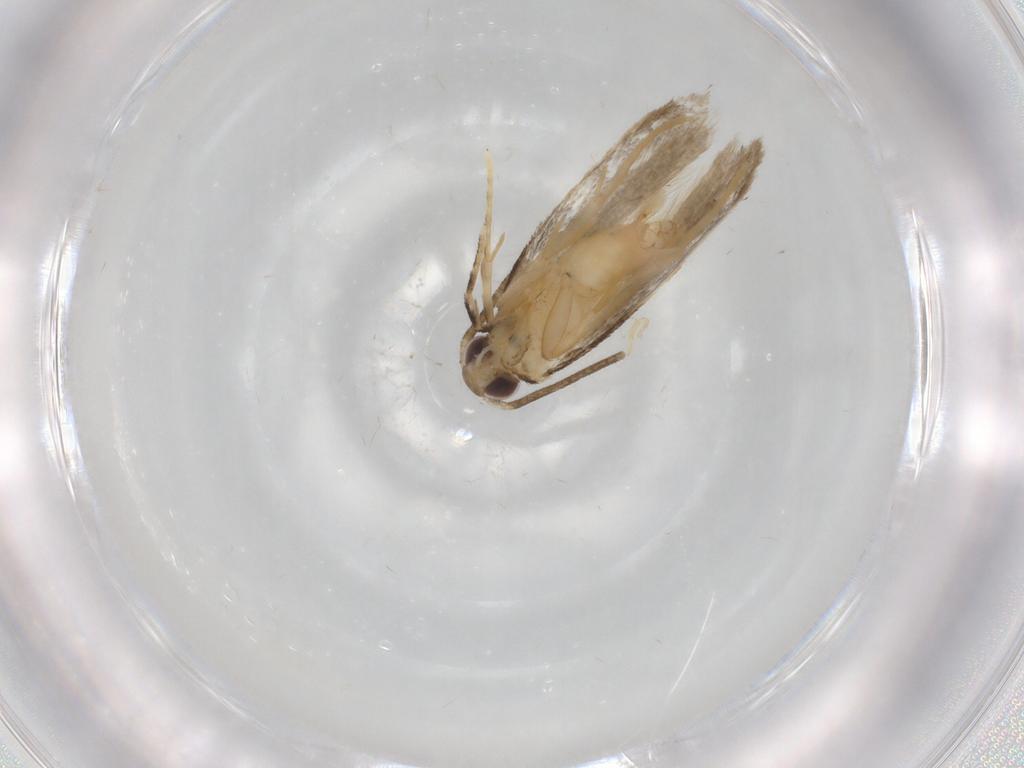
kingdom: Animalia
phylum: Arthropoda
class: Insecta
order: Lepidoptera
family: Autostichidae
